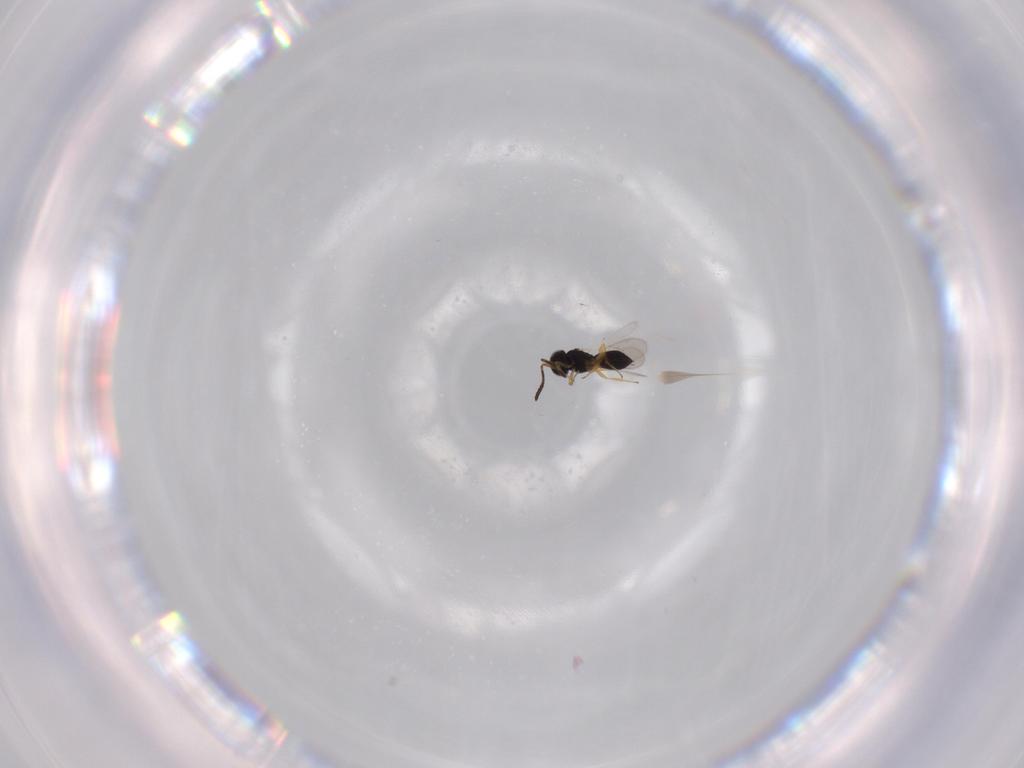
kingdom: Animalia
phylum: Arthropoda
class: Insecta
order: Hymenoptera
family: Scelionidae
